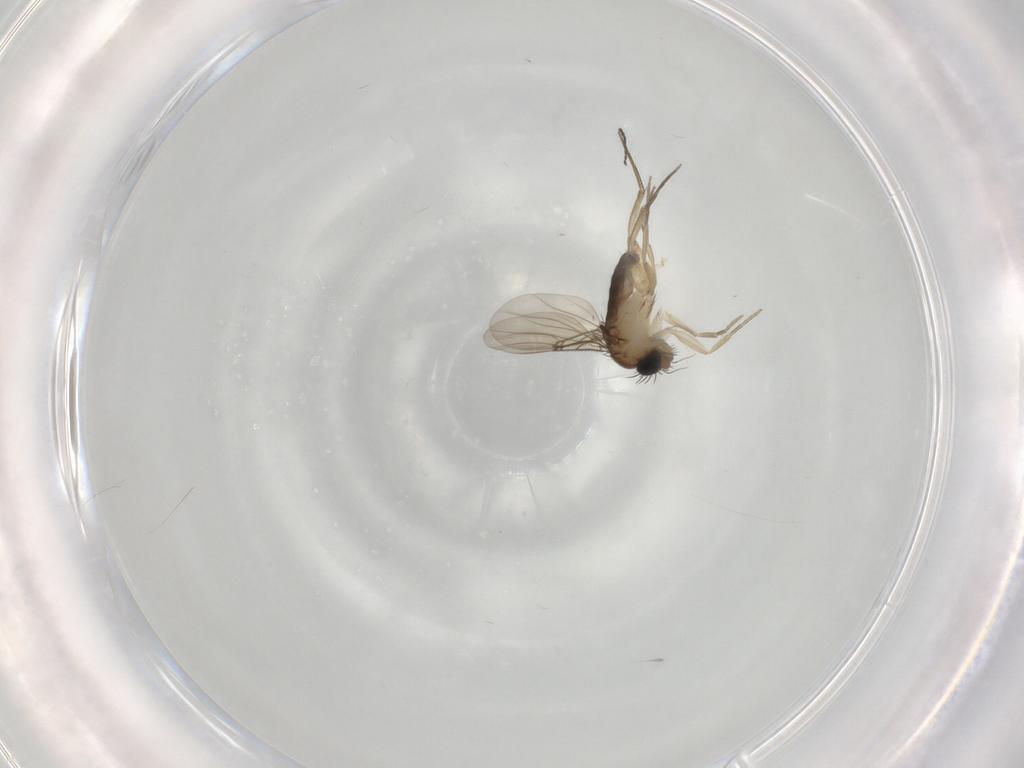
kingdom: Animalia
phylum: Arthropoda
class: Insecta
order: Diptera
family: Phoridae
